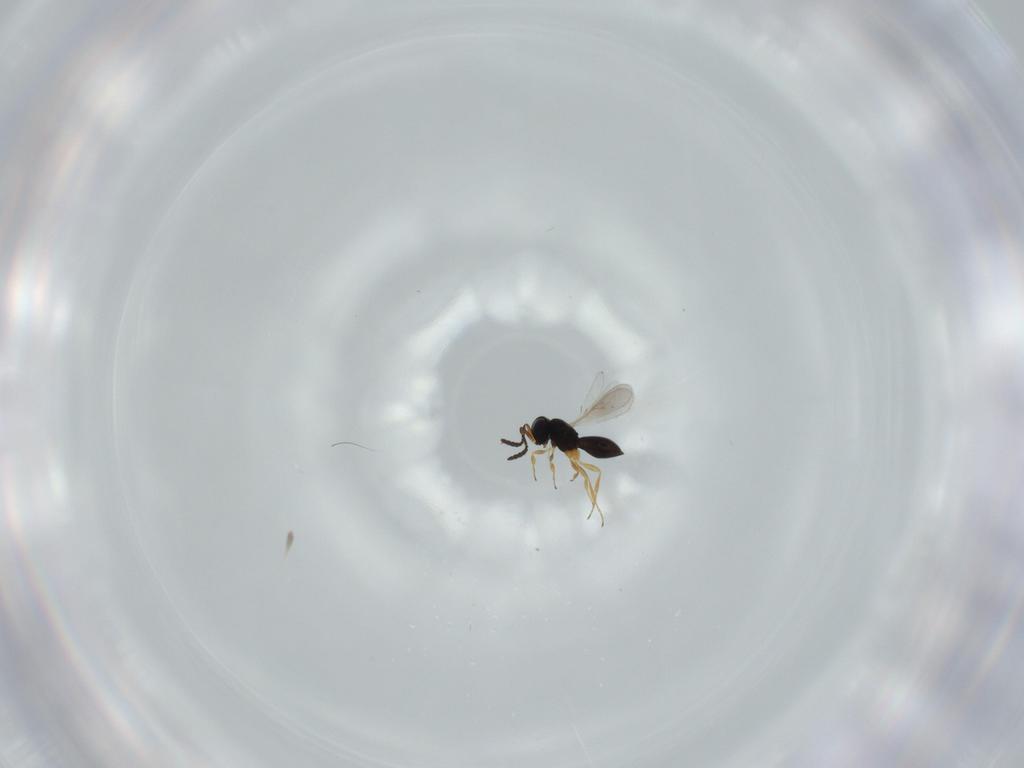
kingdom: Animalia
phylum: Arthropoda
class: Insecta
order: Hymenoptera
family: Scelionidae
